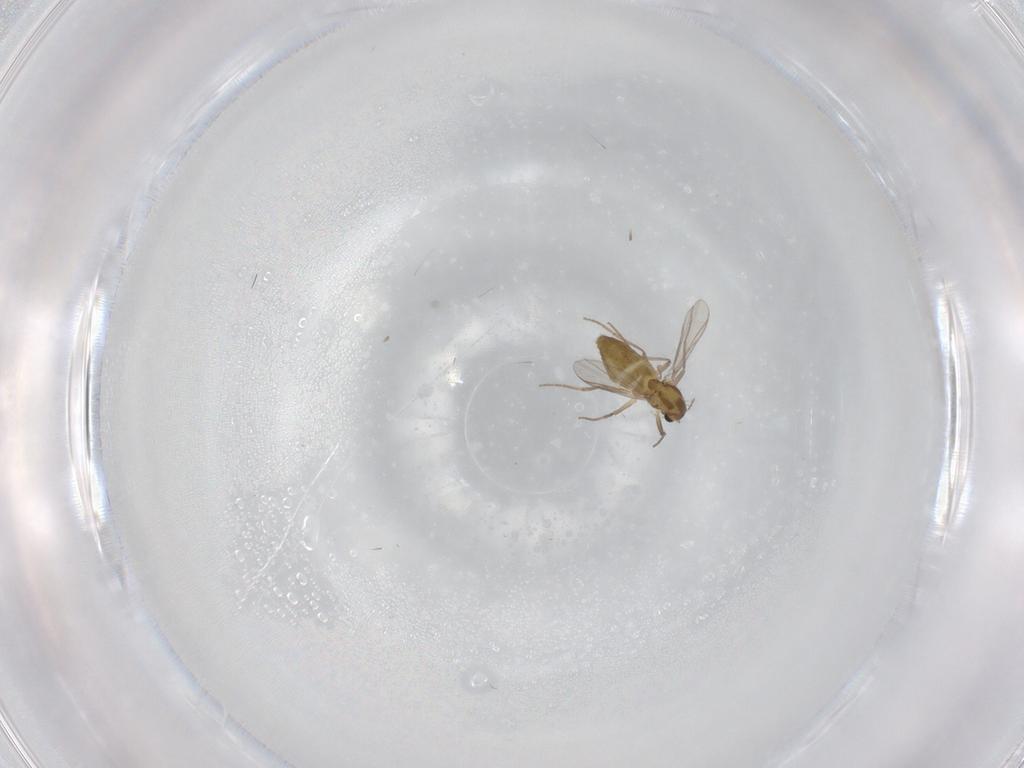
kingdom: Animalia
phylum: Arthropoda
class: Insecta
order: Diptera
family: Chironomidae
